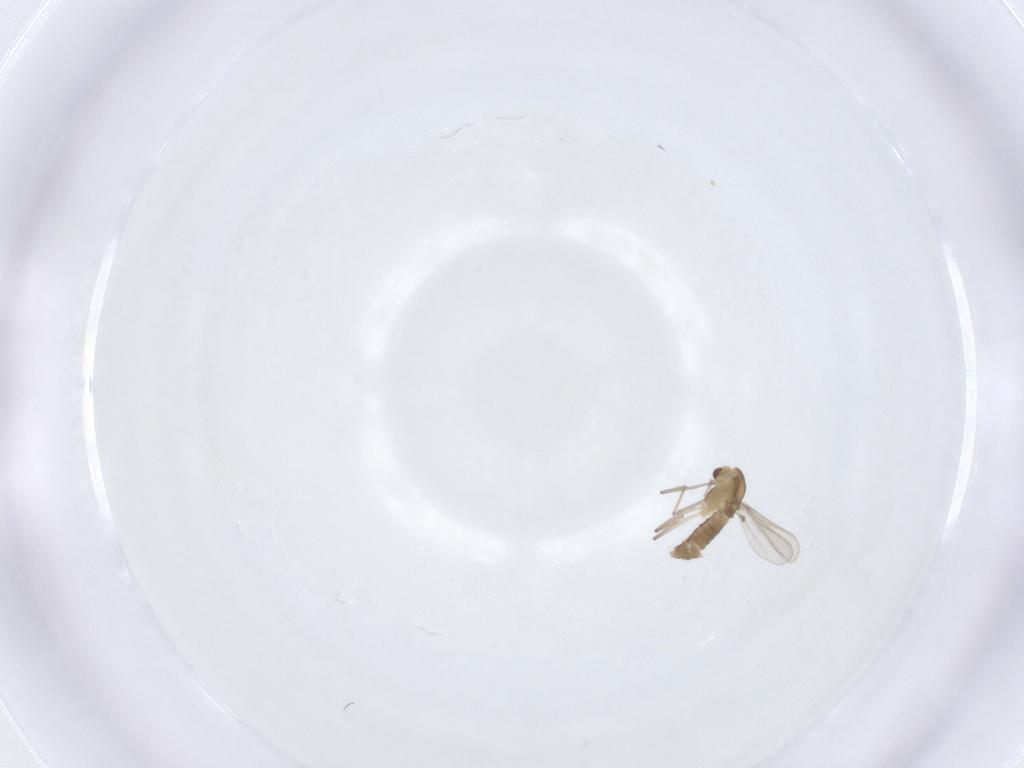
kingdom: Animalia
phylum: Arthropoda
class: Insecta
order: Diptera
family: Chironomidae
